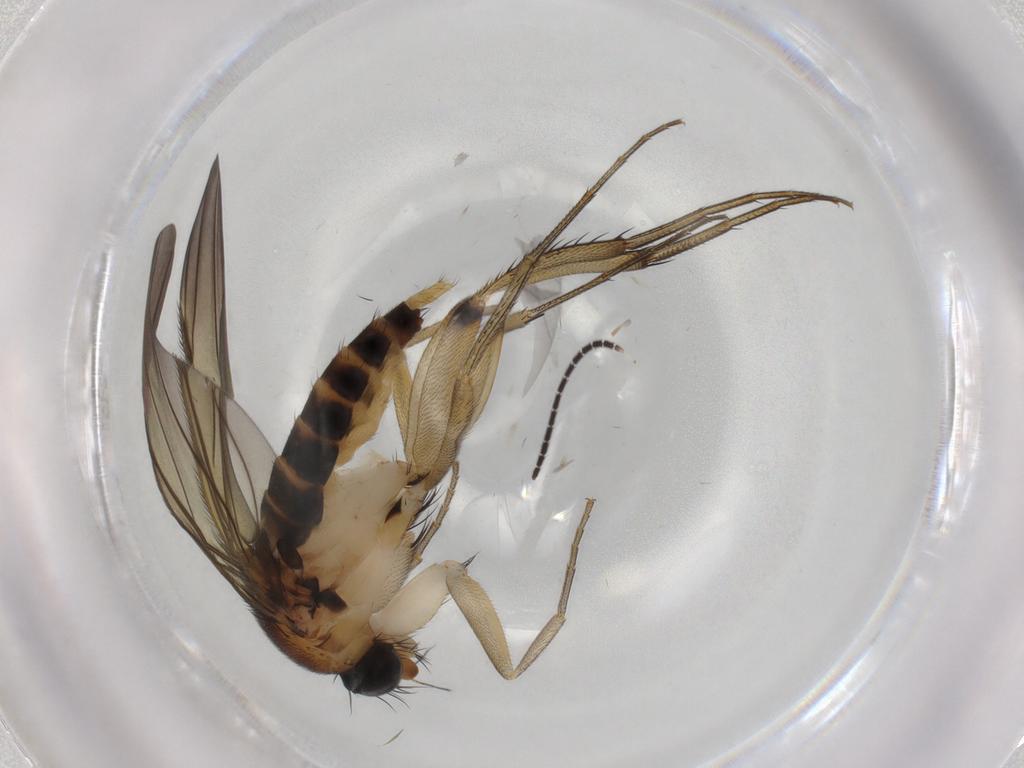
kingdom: Animalia
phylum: Arthropoda
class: Insecta
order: Diptera
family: Phoridae
